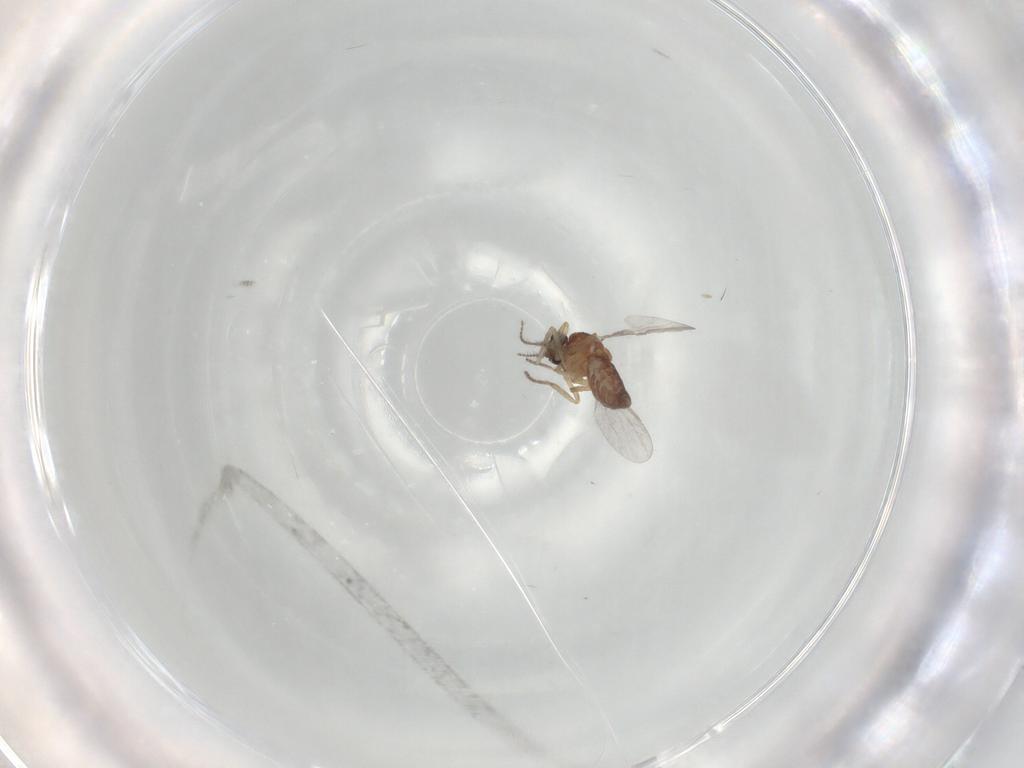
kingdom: Animalia
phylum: Arthropoda
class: Insecta
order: Diptera
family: Ceratopogonidae
